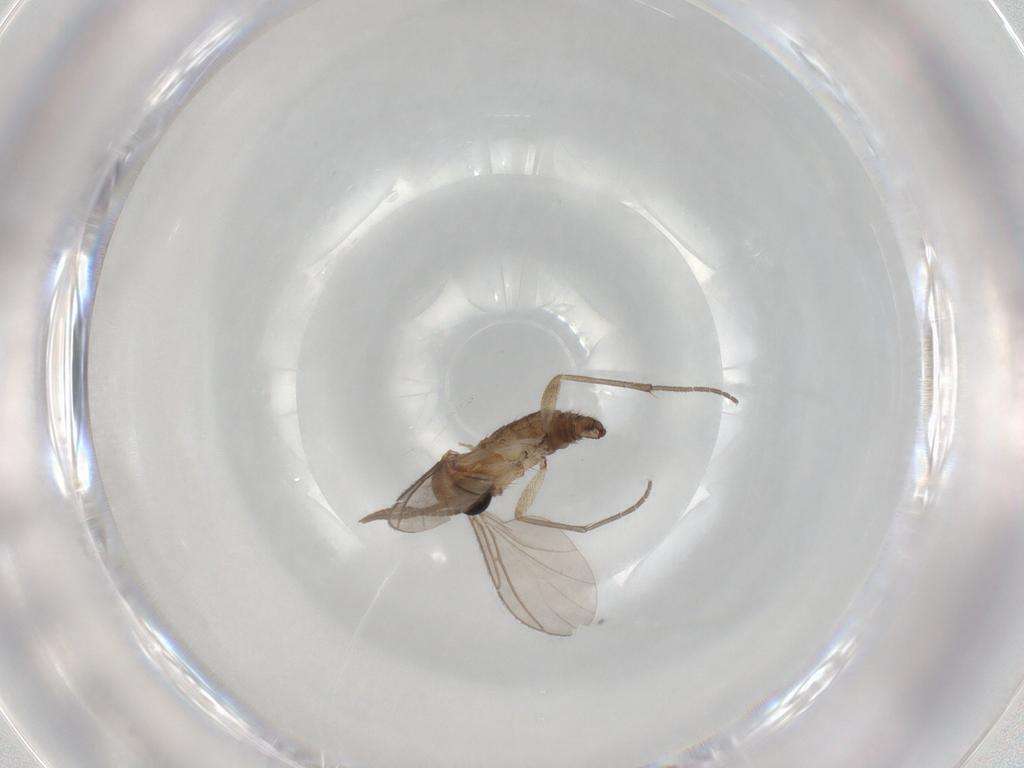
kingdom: Animalia
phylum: Arthropoda
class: Insecta
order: Diptera
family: Sciaridae
